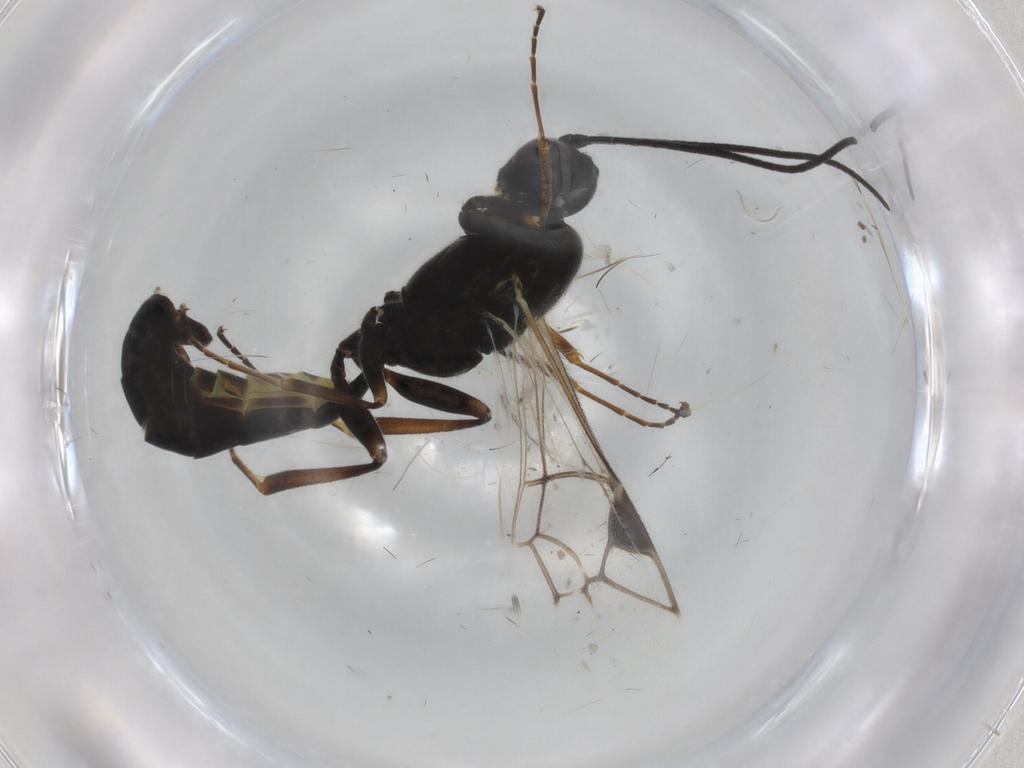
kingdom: Animalia
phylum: Arthropoda
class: Insecta
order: Hymenoptera
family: Ichneumonidae
